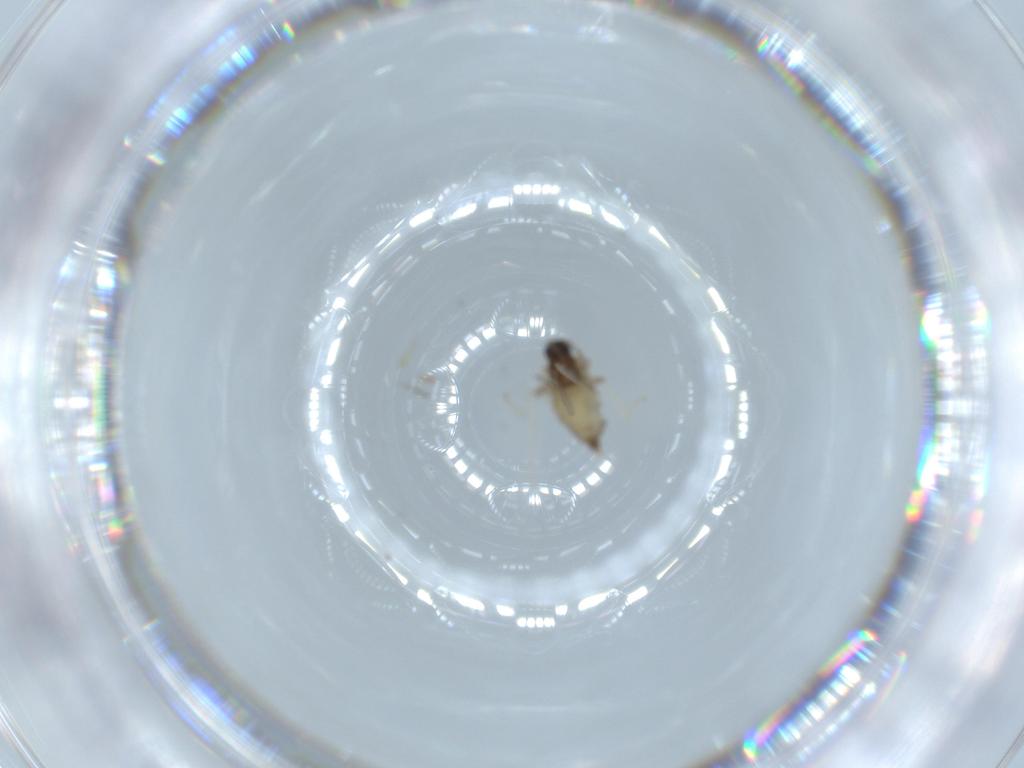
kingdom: Animalia
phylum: Arthropoda
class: Insecta
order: Diptera
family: Cecidomyiidae
